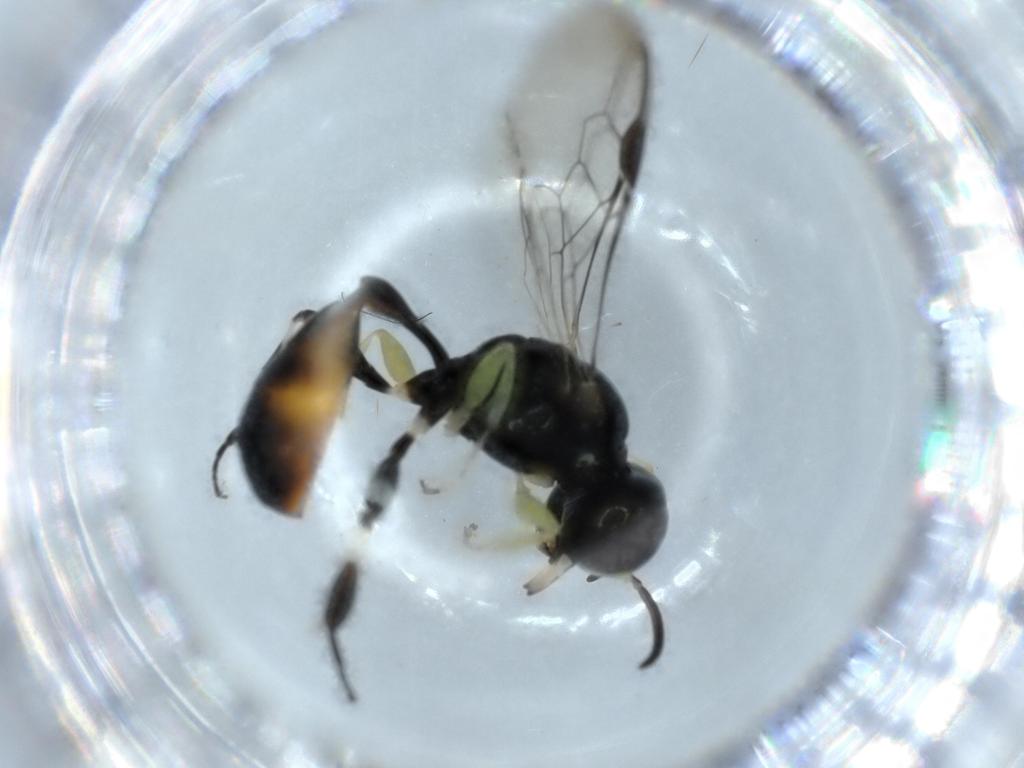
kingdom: Animalia
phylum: Arthropoda
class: Insecta
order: Hymenoptera
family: Crabronidae
